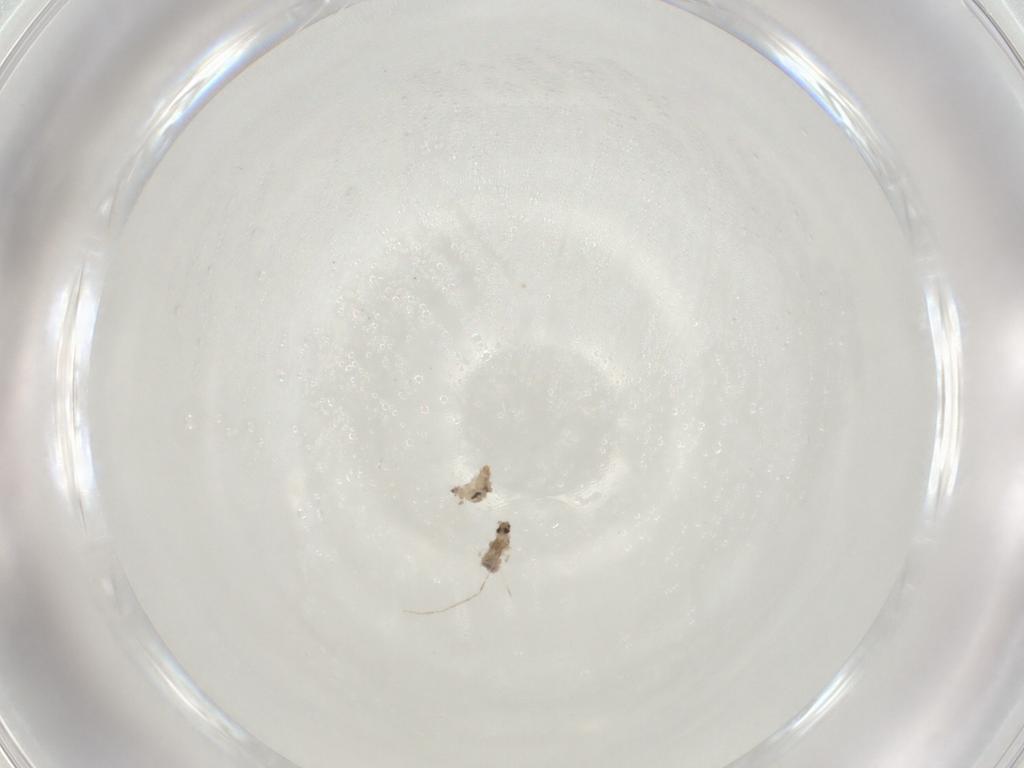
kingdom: Animalia
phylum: Arthropoda
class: Insecta
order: Diptera
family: Cecidomyiidae
